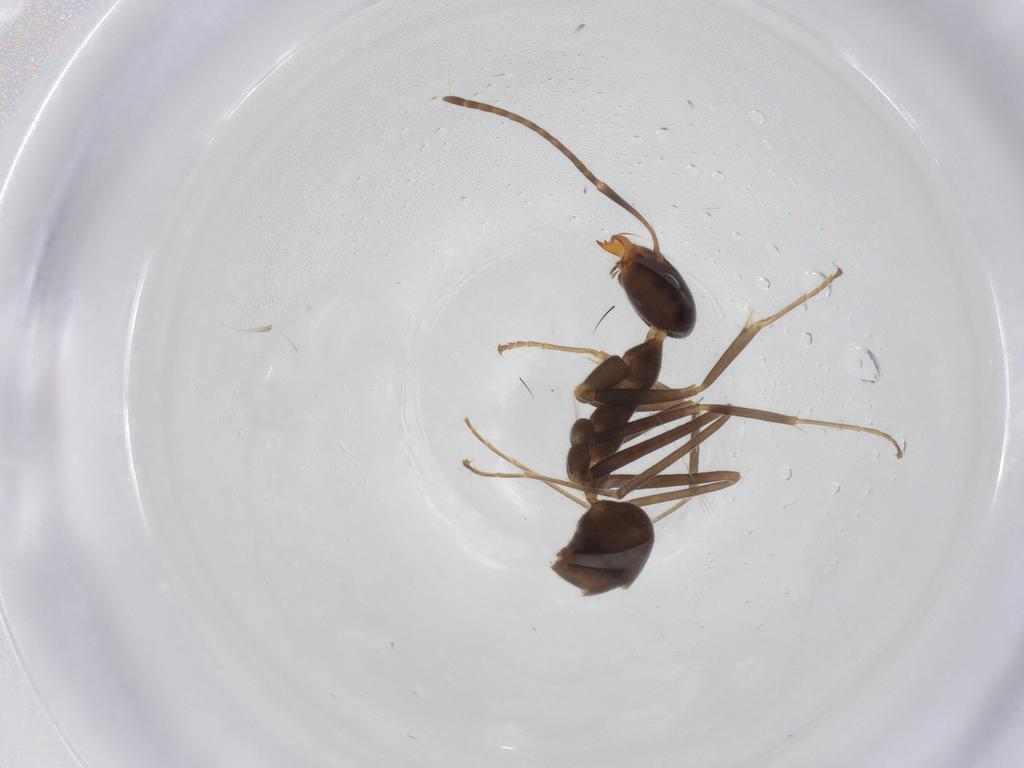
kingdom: Animalia
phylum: Arthropoda
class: Insecta
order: Hymenoptera
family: Formicidae
